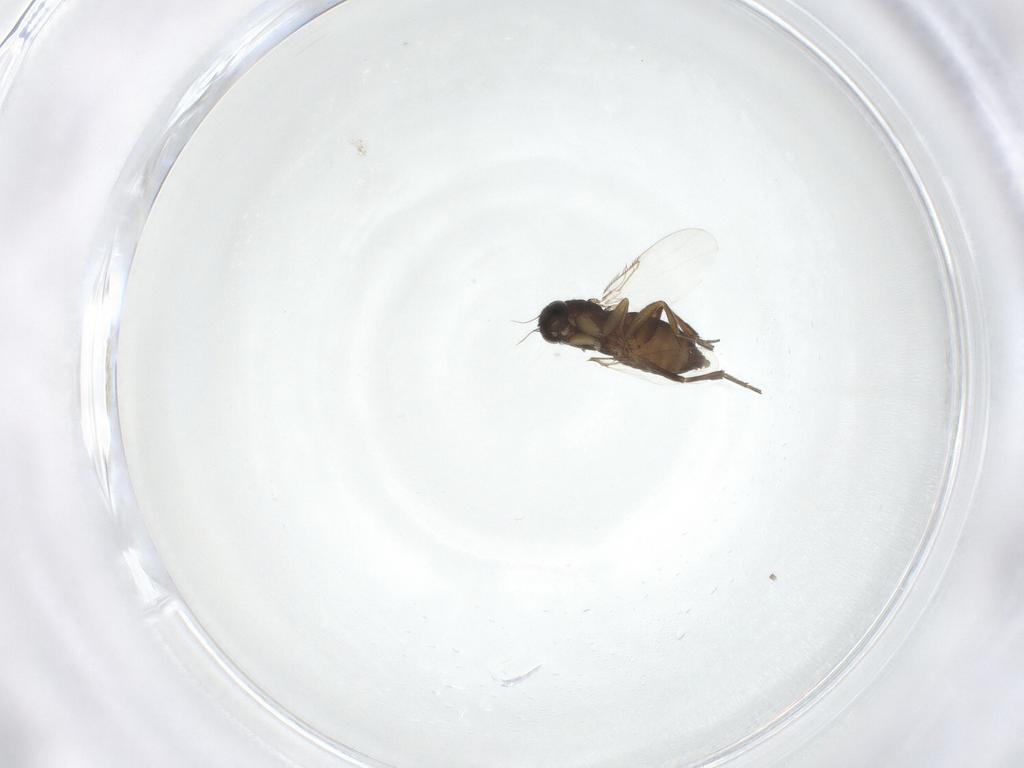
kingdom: Animalia
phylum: Arthropoda
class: Insecta
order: Diptera
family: Phoridae
